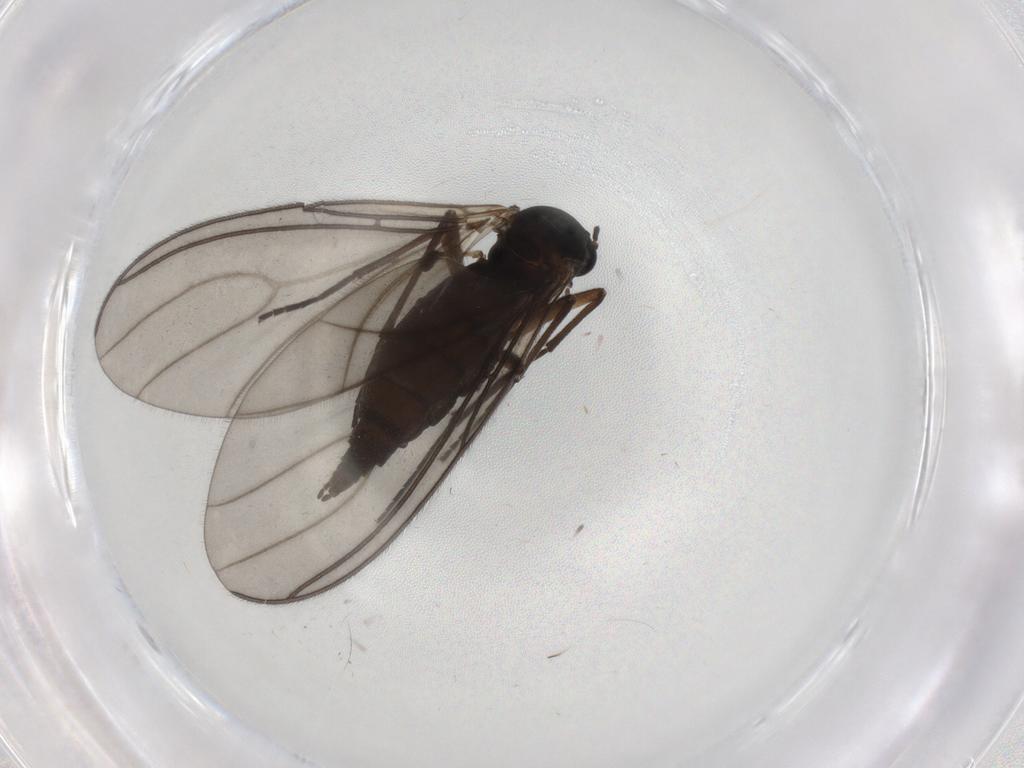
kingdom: Animalia
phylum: Arthropoda
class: Insecta
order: Diptera
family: Sciaridae
